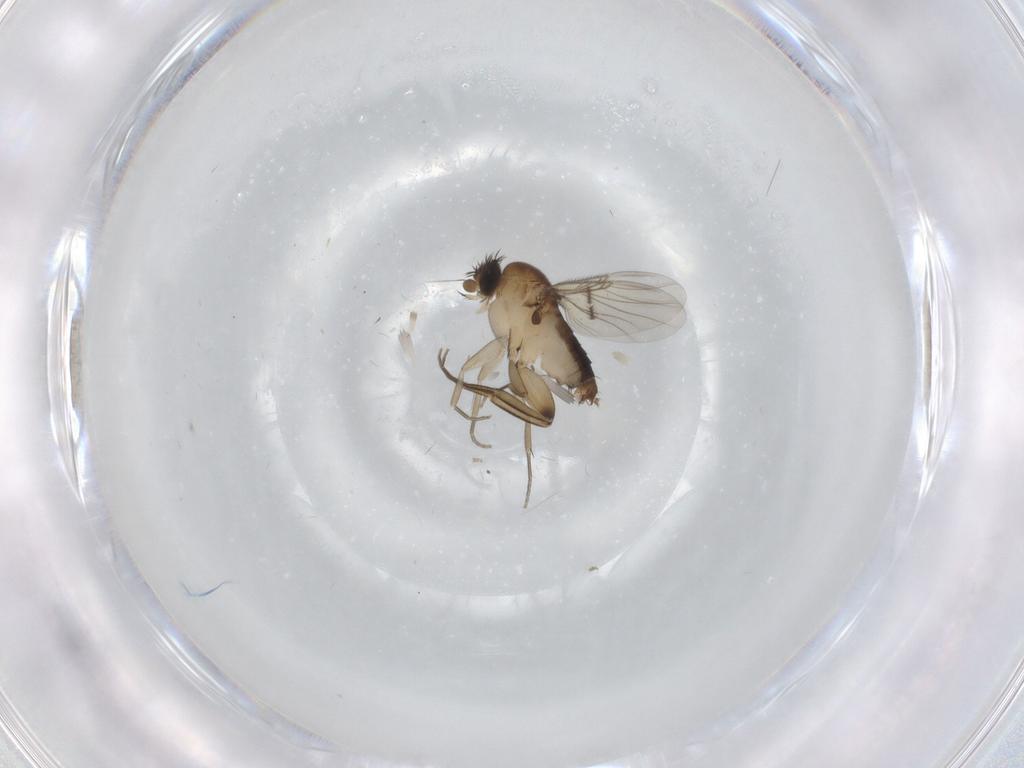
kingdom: Animalia
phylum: Arthropoda
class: Insecta
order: Diptera
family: Phoridae
